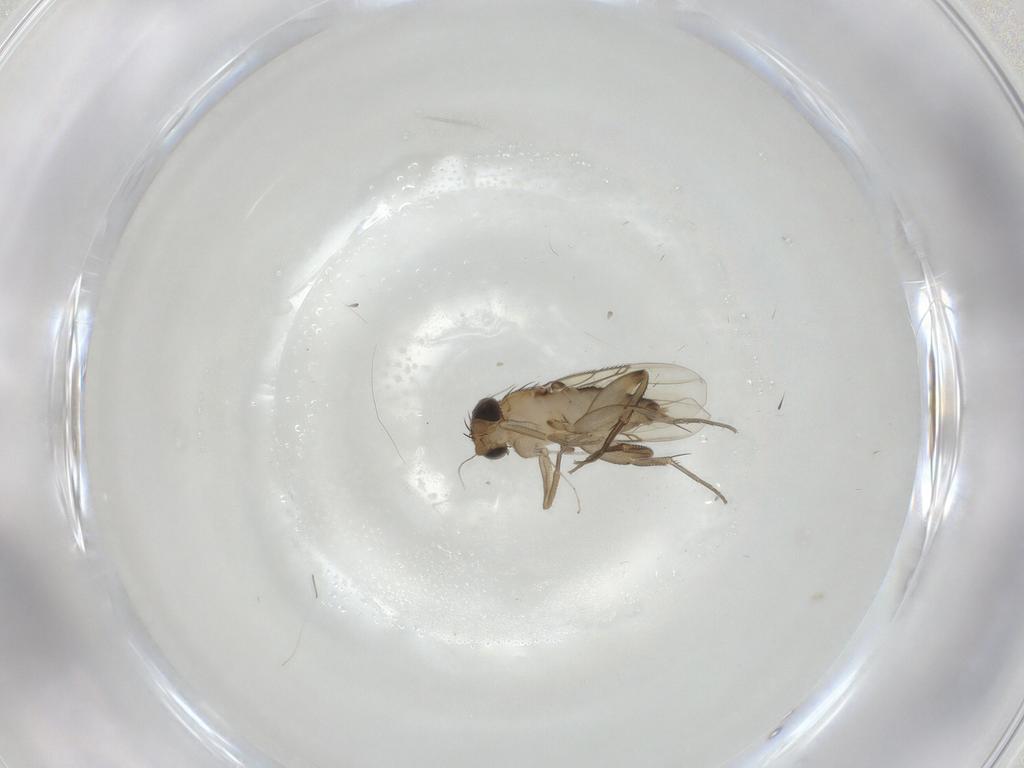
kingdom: Animalia
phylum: Arthropoda
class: Insecta
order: Diptera
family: Phoridae
